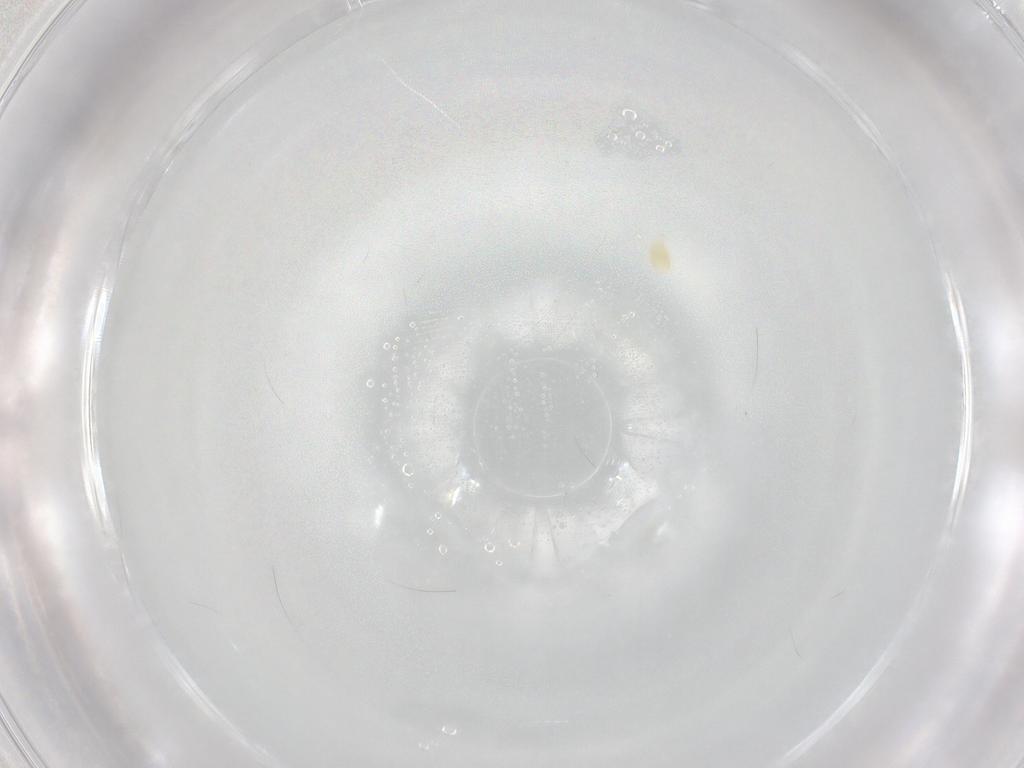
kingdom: Animalia
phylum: Arthropoda
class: Arachnida
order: Trombidiformes
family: Eupodidae
